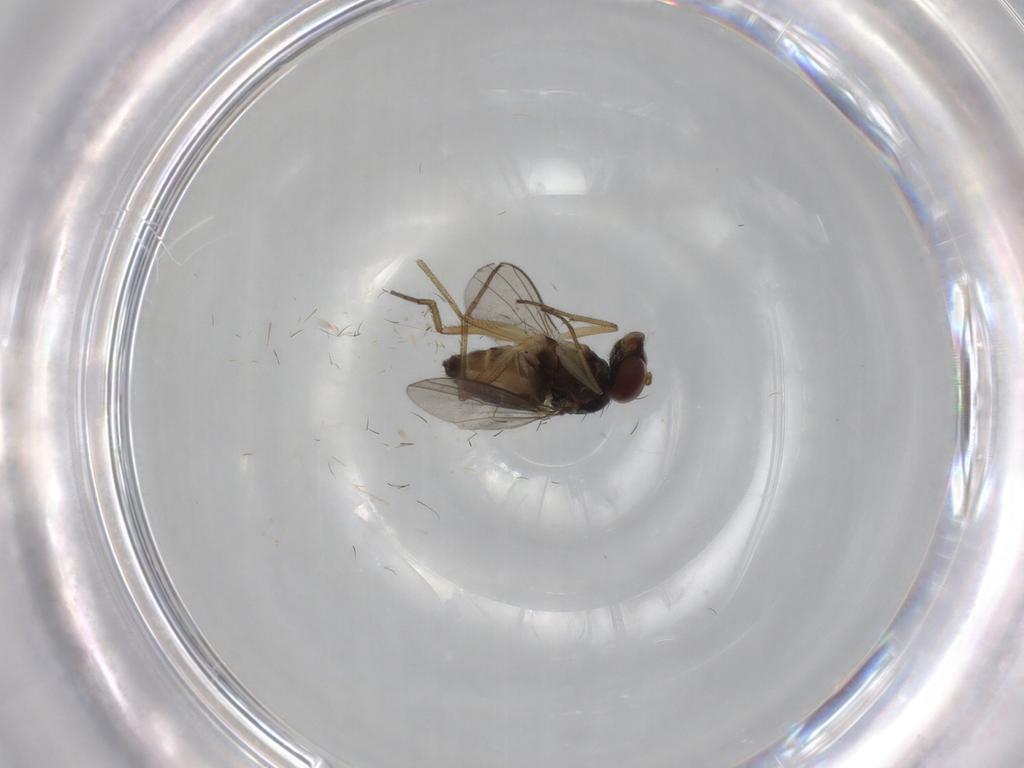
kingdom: Animalia
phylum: Arthropoda
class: Insecta
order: Diptera
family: Dolichopodidae
